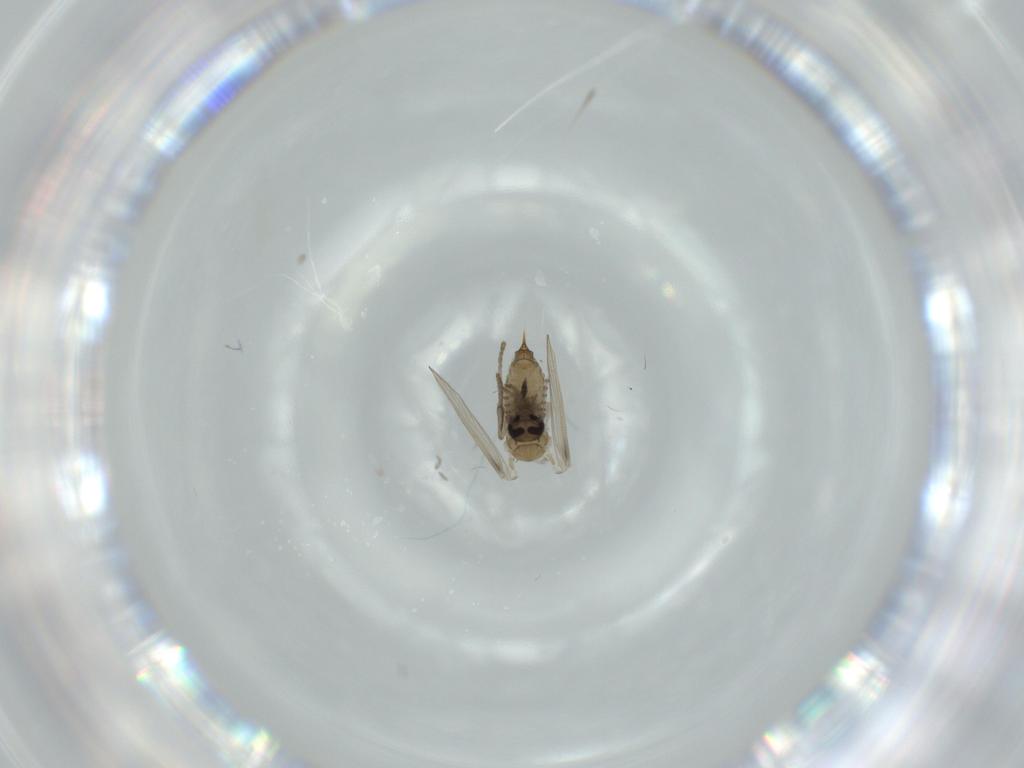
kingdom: Animalia
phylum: Arthropoda
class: Insecta
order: Diptera
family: Psychodidae
